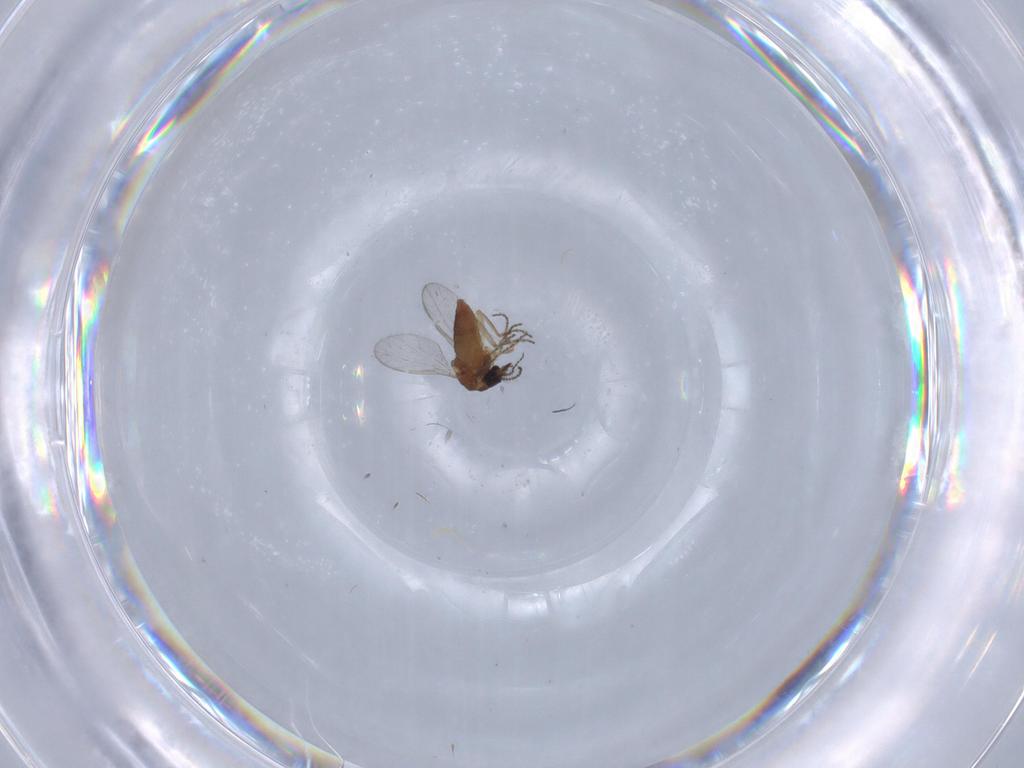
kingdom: Animalia
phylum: Arthropoda
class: Insecta
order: Diptera
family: Ceratopogonidae
